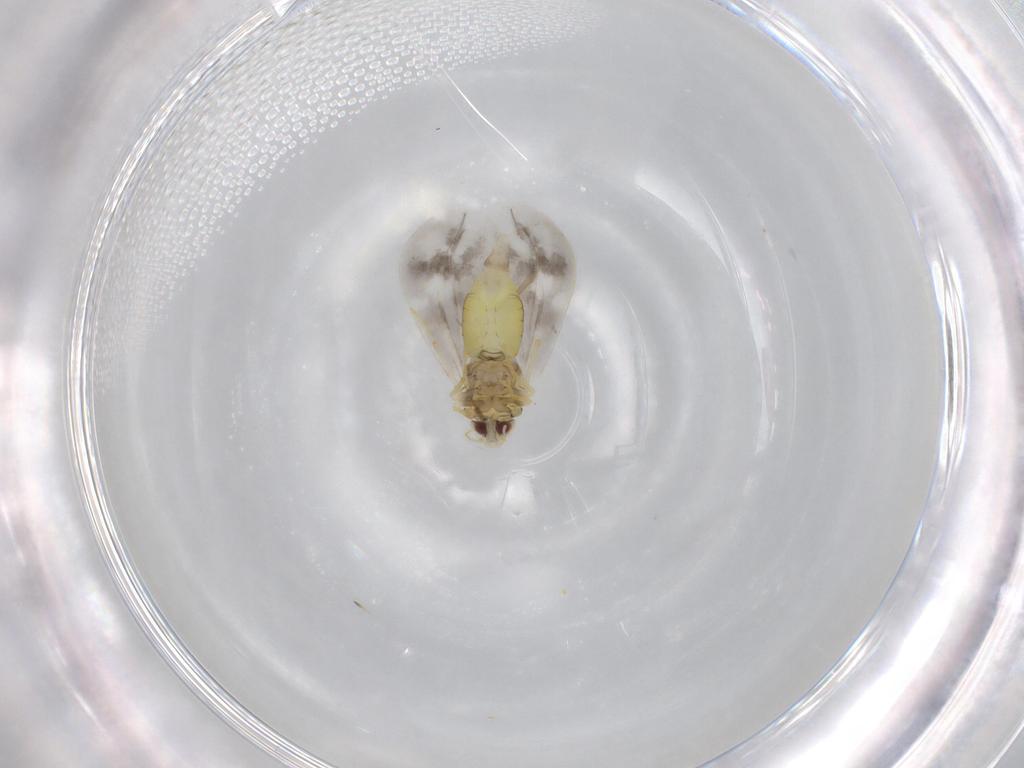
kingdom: Animalia
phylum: Arthropoda
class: Insecta
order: Hemiptera
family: Aleyrodidae
